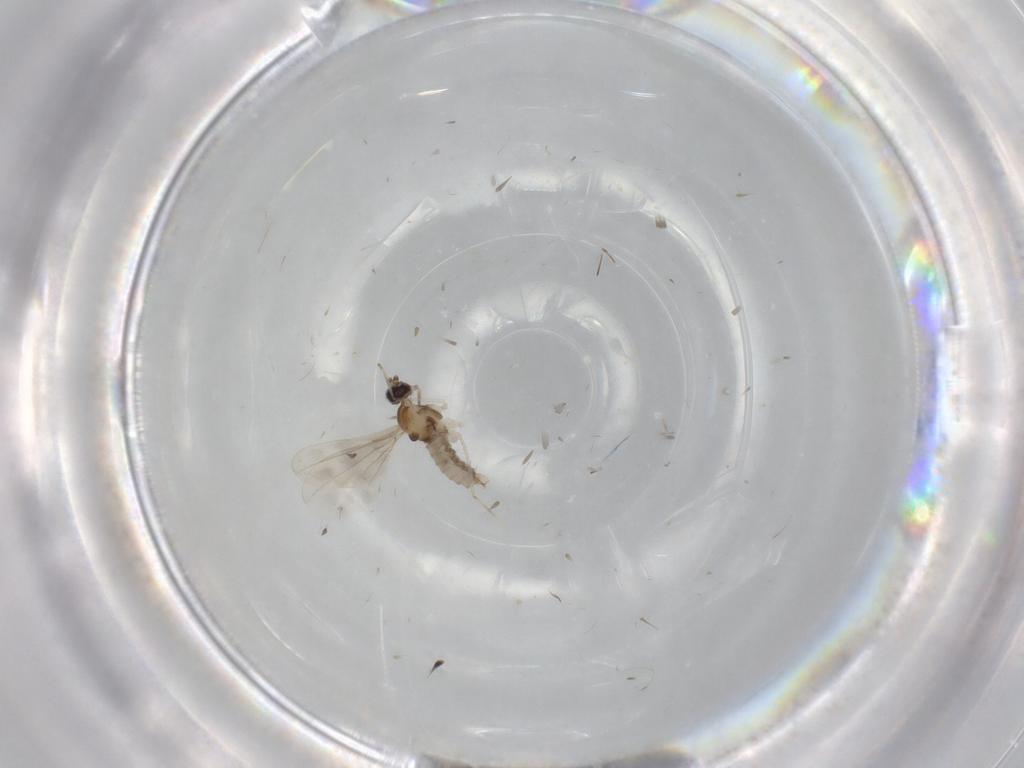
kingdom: Animalia
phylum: Arthropoda
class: Insecta
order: Diptera
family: Cecidomyiidae
